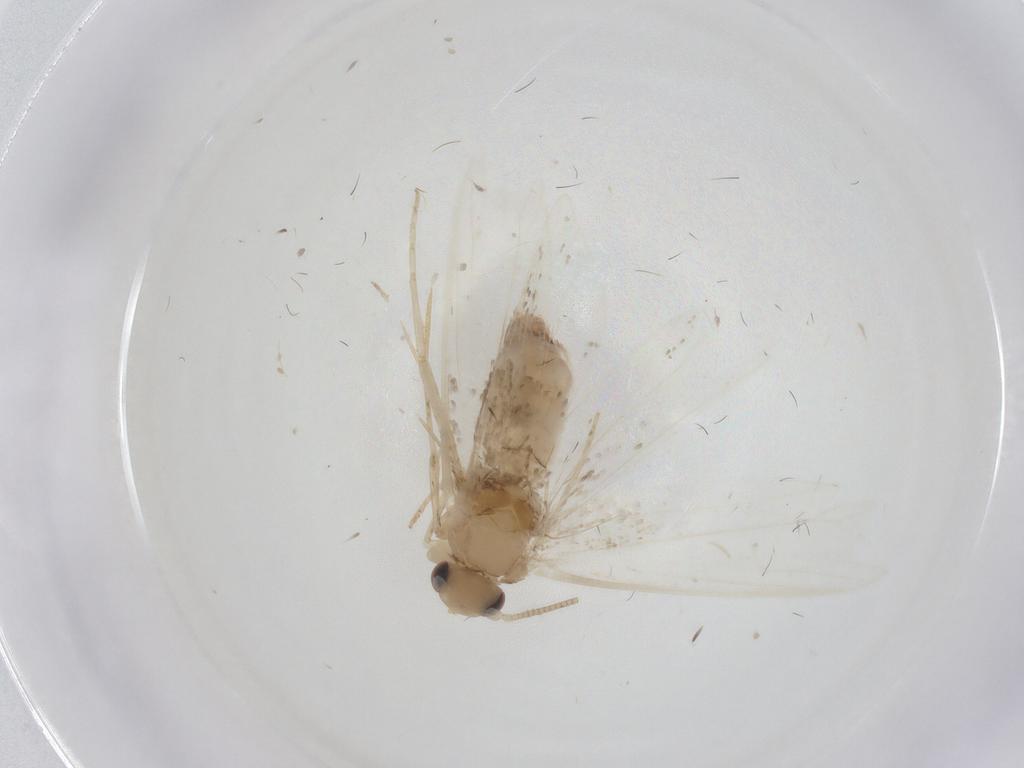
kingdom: Animalia
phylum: Arthropoda
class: Insecta
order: Lepidoptera
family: Dryadaulidae
